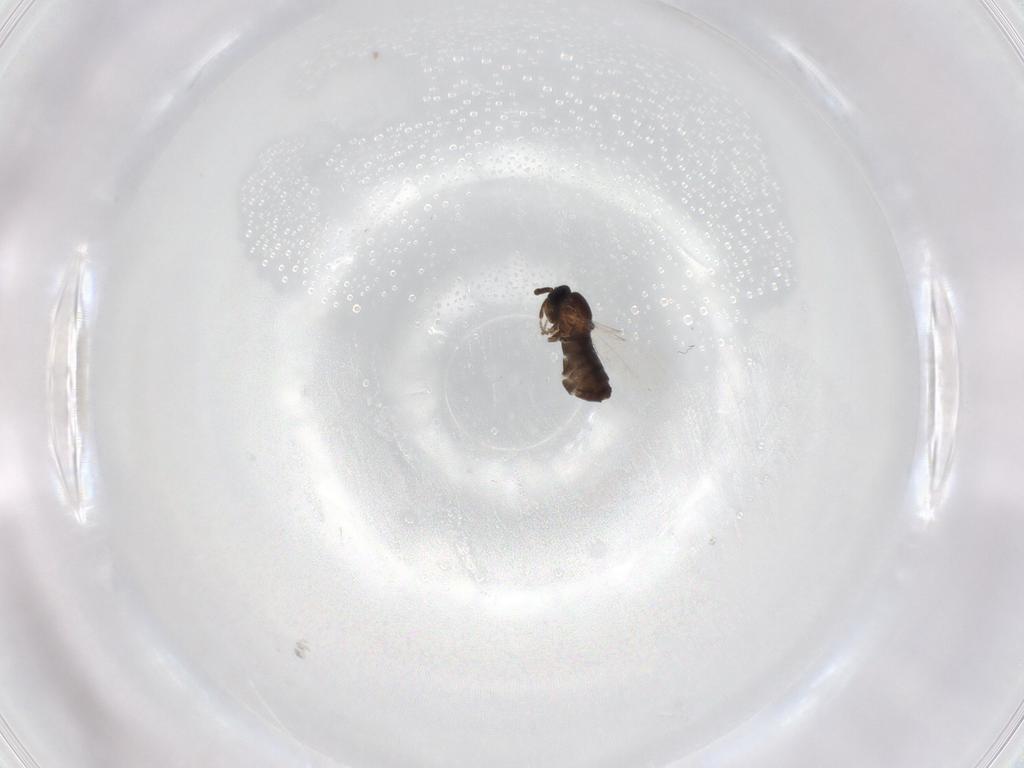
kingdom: Animalia
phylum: Arthropoda
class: Insecta
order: Diptera
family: Scatopsidae
